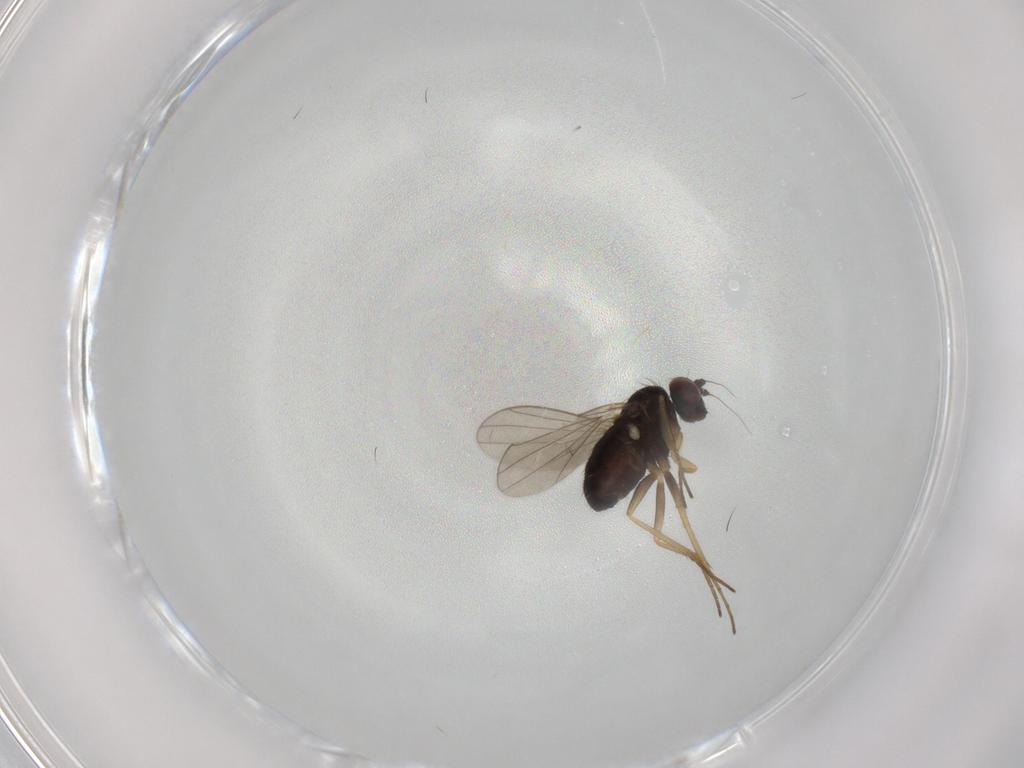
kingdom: Animalia
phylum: Arthropoda
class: Insecta
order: Diptera
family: Dolichopodidae
